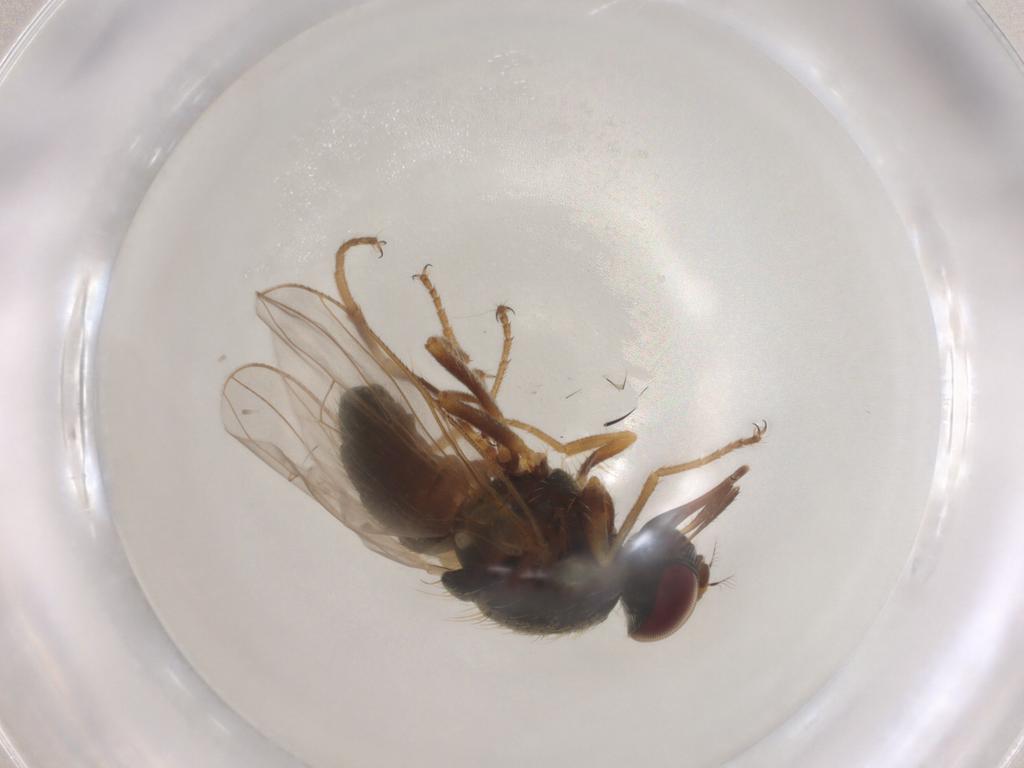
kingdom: Animalia
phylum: Arthropoda
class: Insecta
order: Diptera
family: Muscidae
